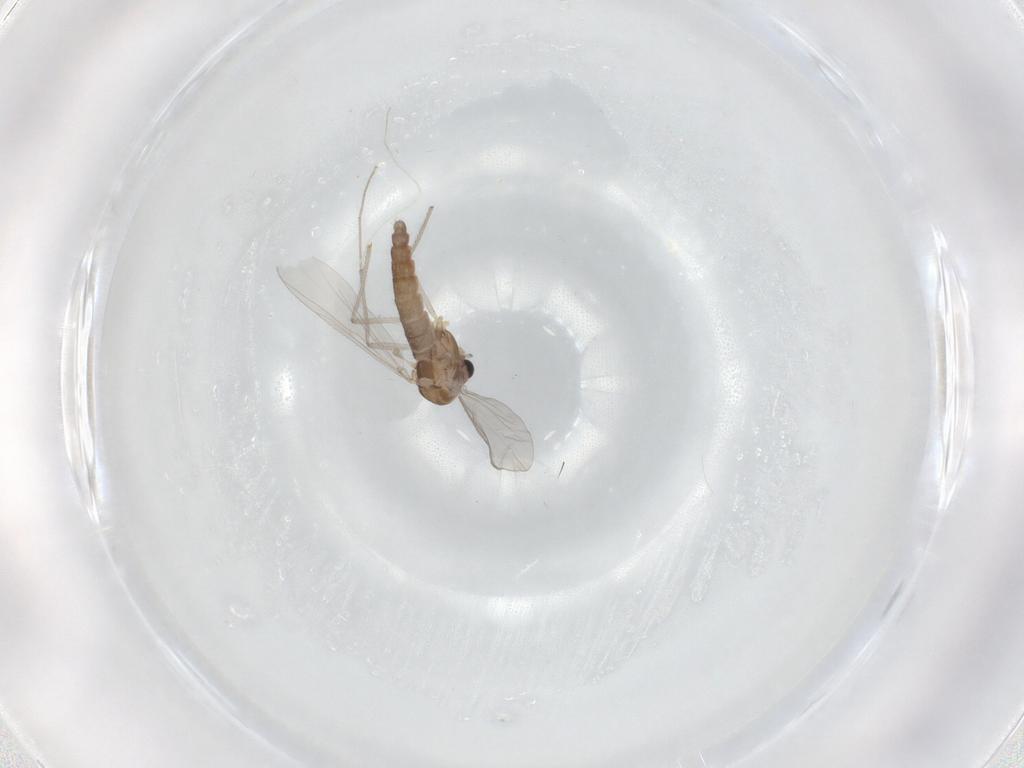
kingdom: Animalia
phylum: Arthropoda
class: Insecta
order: Diptera
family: Chironomidae
